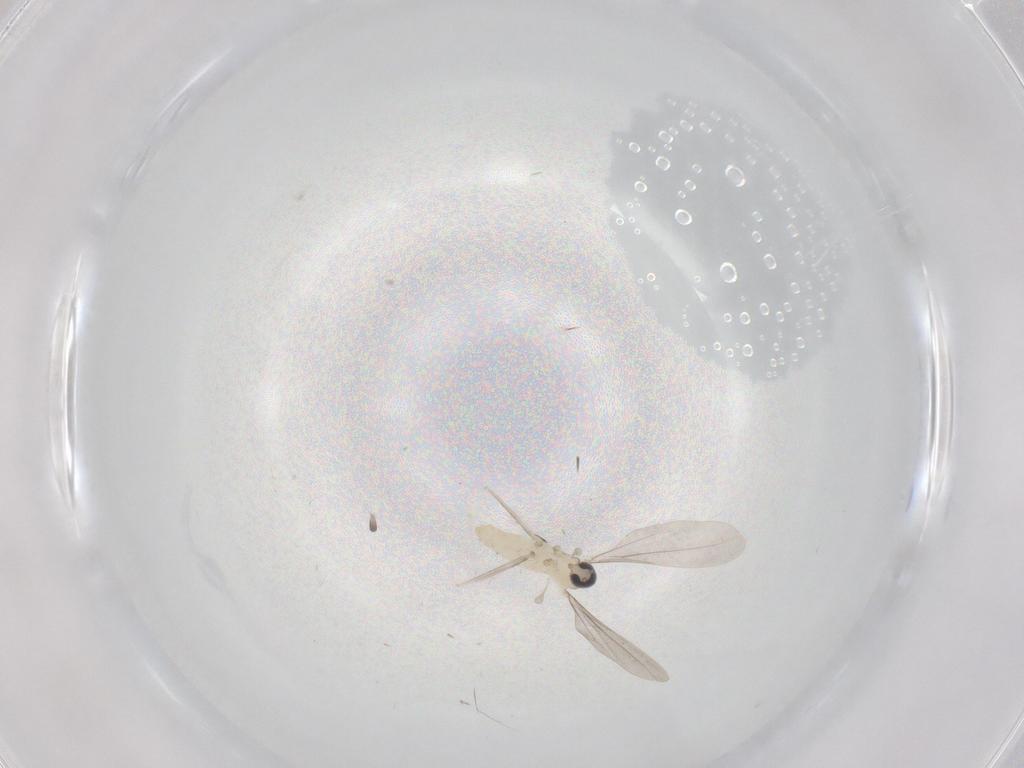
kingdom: Animalia
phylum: Arthropoda
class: Insecta
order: Diptera
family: Cecidomyiidae
